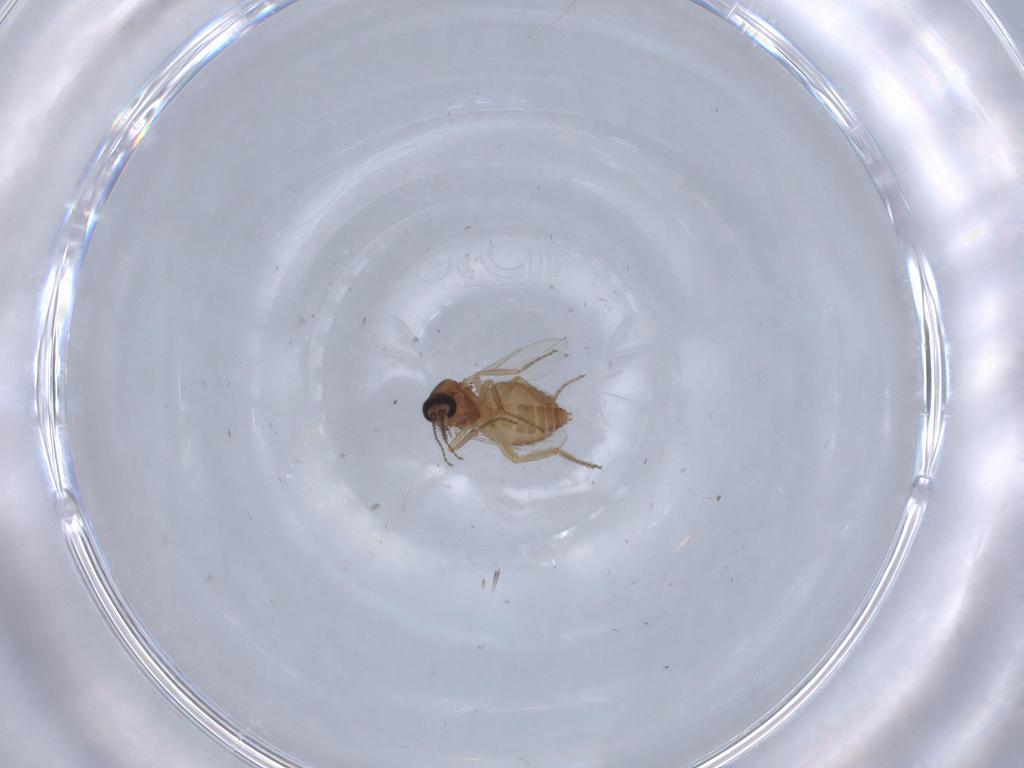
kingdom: Animalia
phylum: Arthropoda
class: Insecta
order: Diptera
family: Ceratopogonidae
